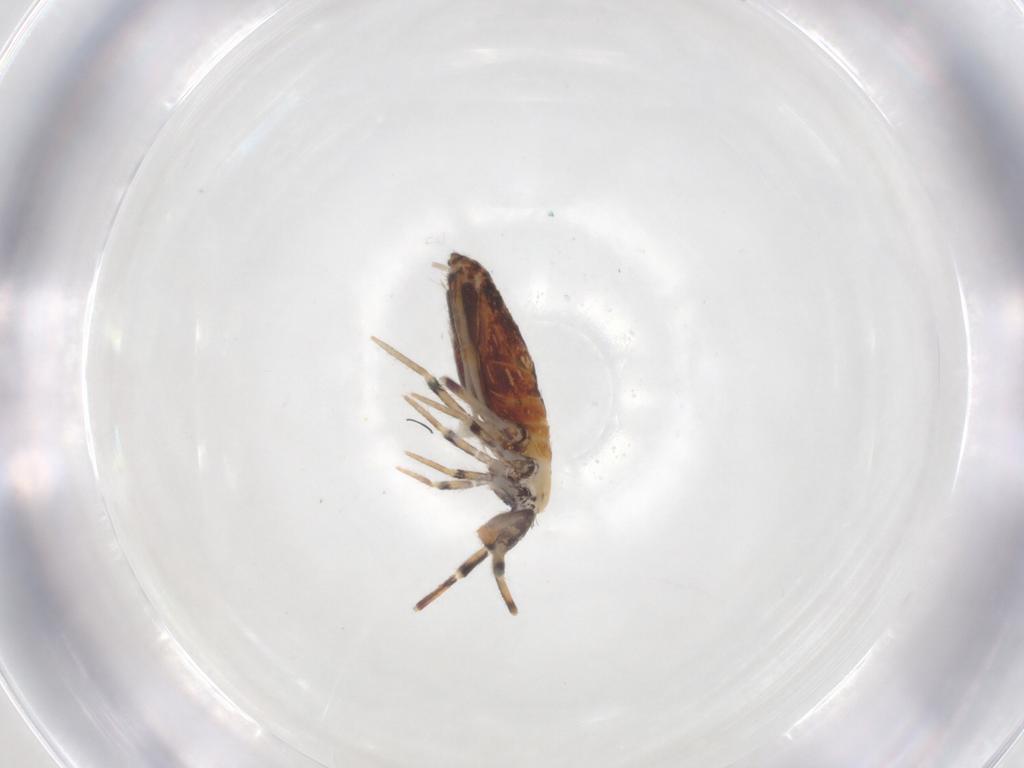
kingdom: Animalia
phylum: Arthropoda
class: Collembola
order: Entomobryomorpha
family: Entomobryidae
